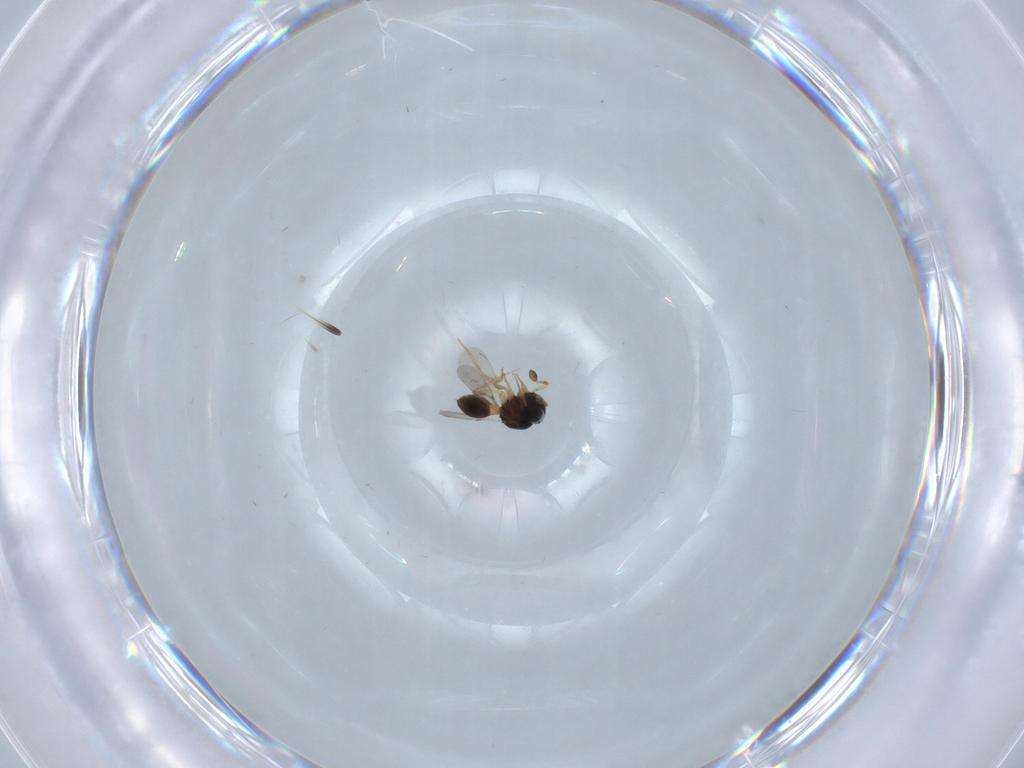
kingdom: Animalia
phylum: Arthropoda
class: Insecta
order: Hymenoptera
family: Scelionidae
